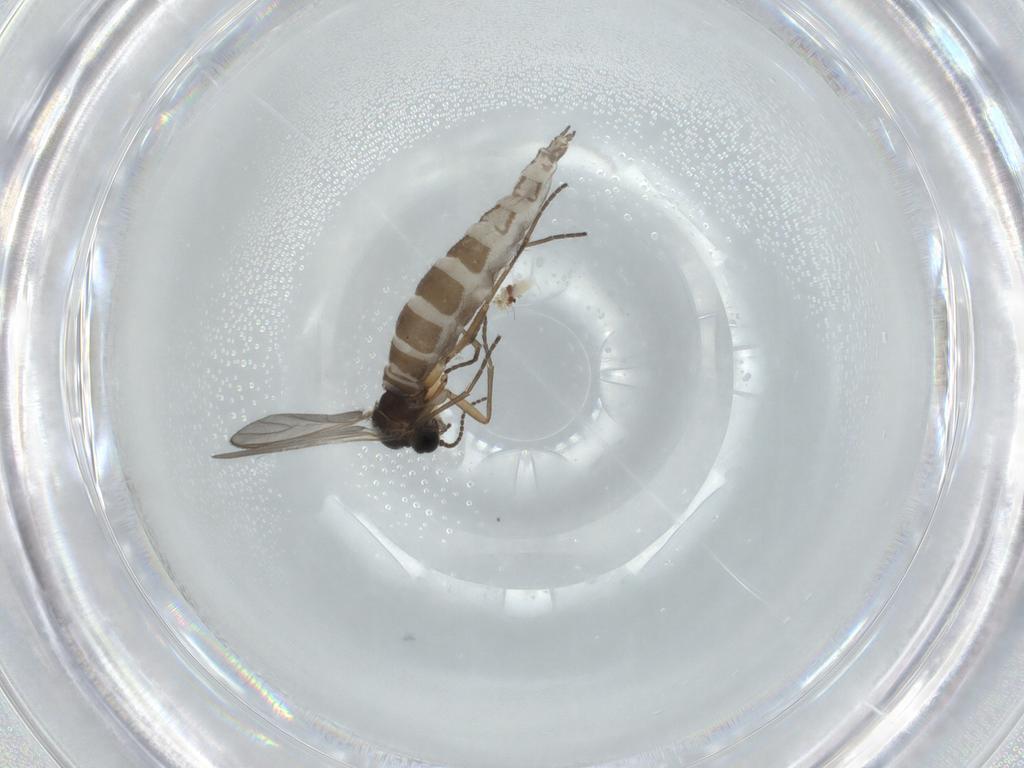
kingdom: Animalia
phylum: Arthropoda
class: Insecta
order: Diptera
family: Sciaridae
